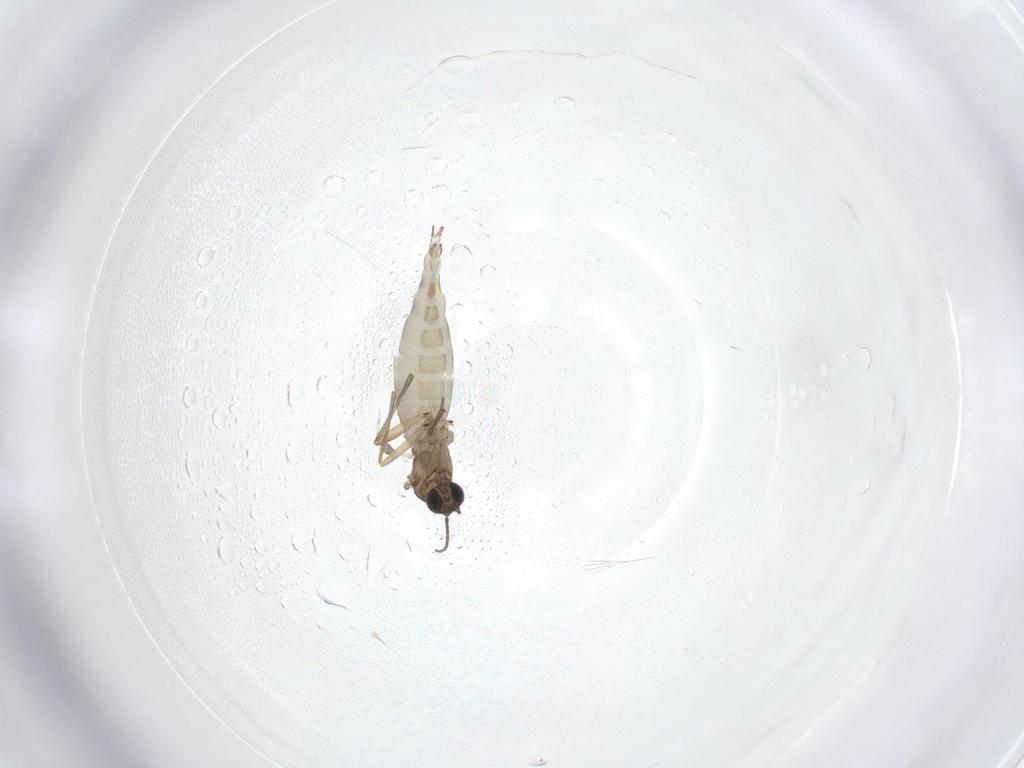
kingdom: Animalia
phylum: Arthropoda
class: Insecta
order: Diptera
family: Sciaridae
